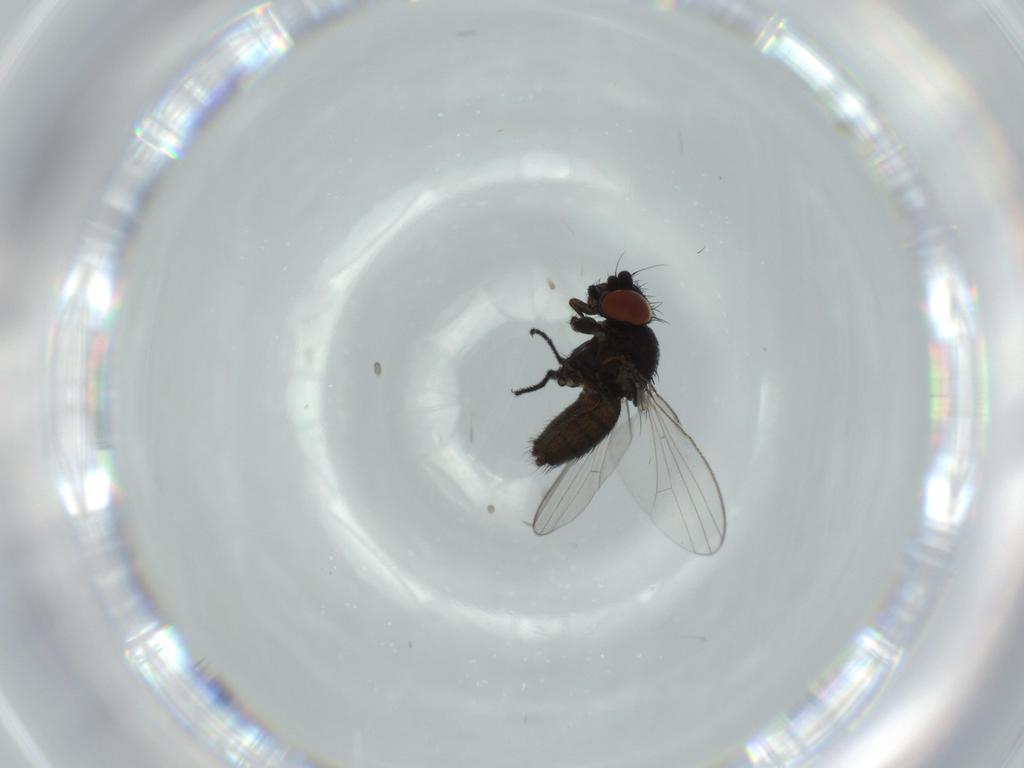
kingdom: Animalia
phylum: Arthropoda
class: Insecta
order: Diptera
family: Milichiidae
